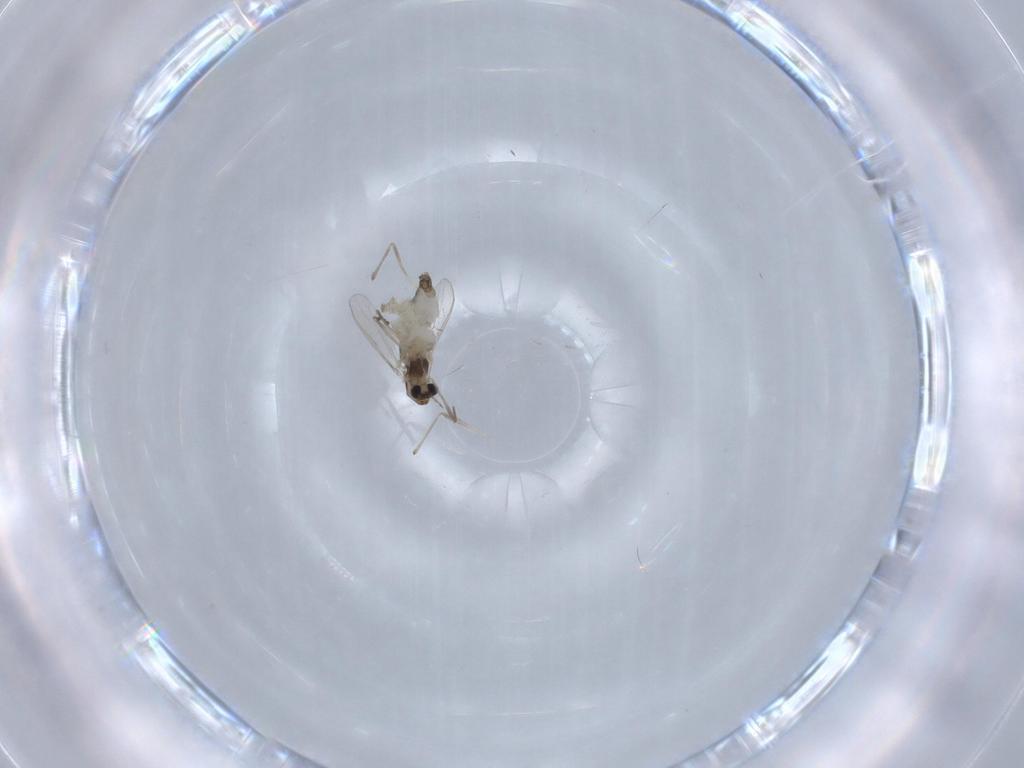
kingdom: Animalia
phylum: Arthropoda
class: Insecta
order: Diptera
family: Chironomidae
